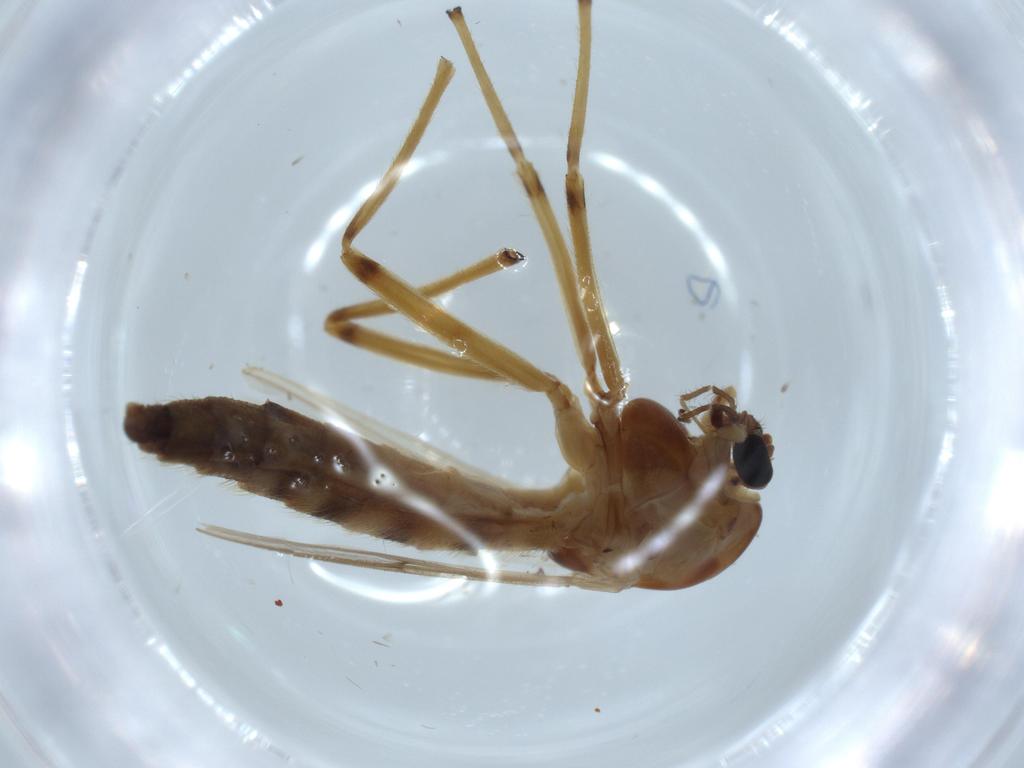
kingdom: Animalia
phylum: Arthropoda
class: Insecta
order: Diptera
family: Chironomidae
